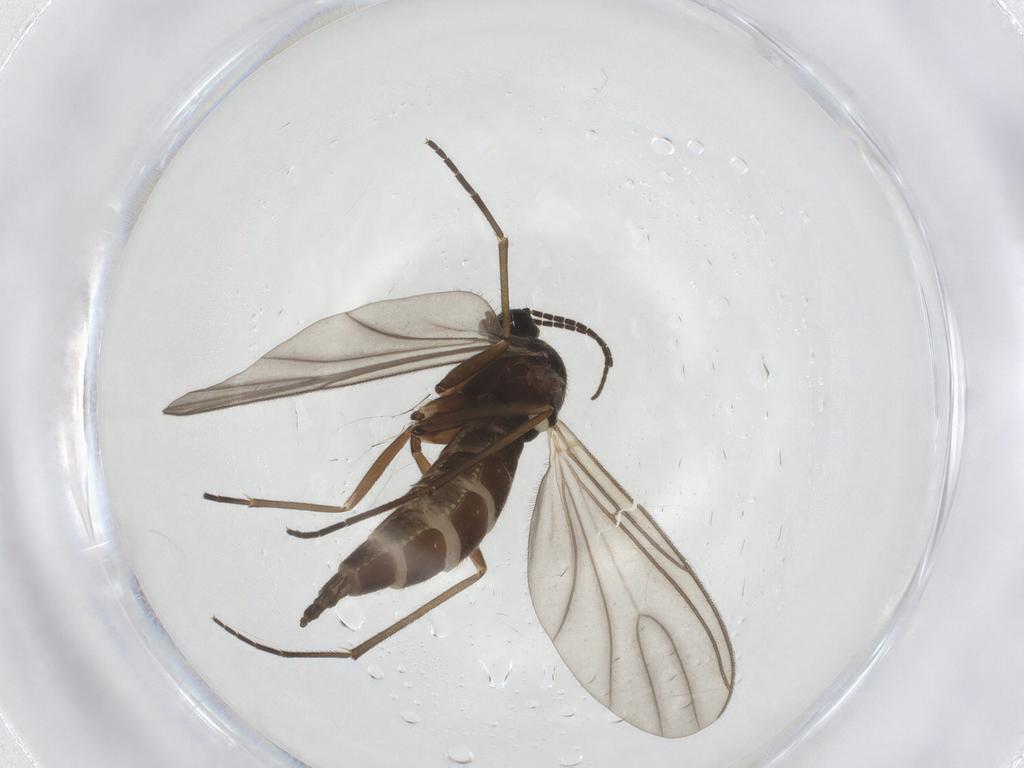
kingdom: Animalia
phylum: Arthropoda
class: Insecta
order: Diptera
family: Sciaridae
